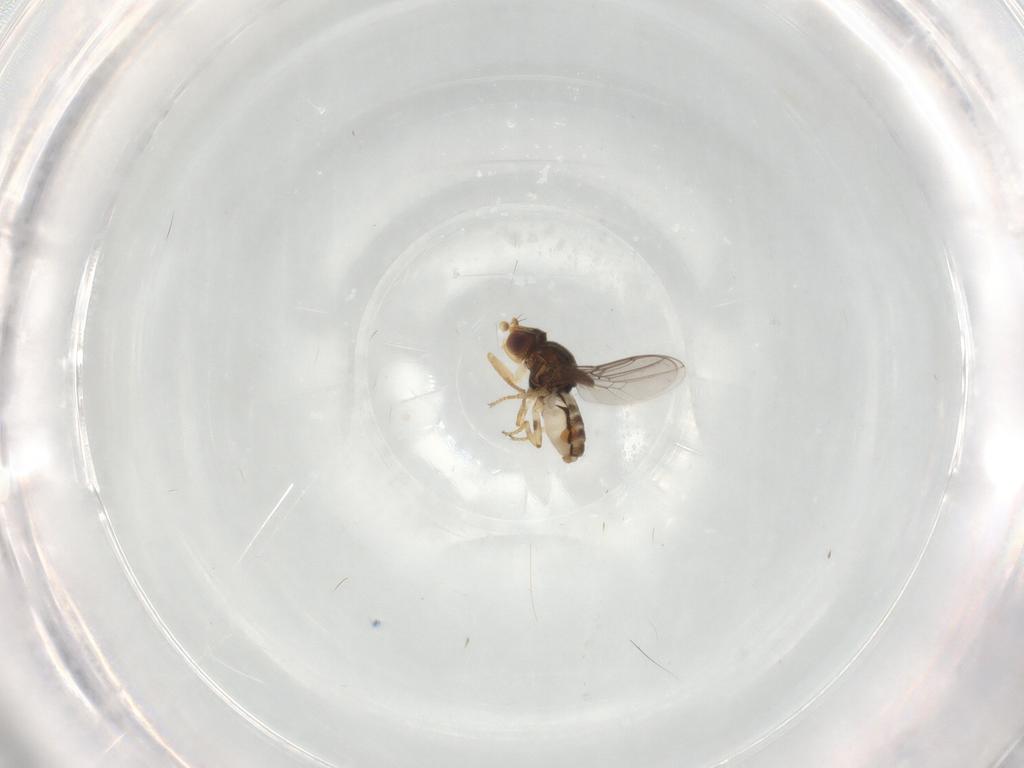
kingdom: Animalia
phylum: Arthropoda
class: Insecta
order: Diptera
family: Chloropidae
